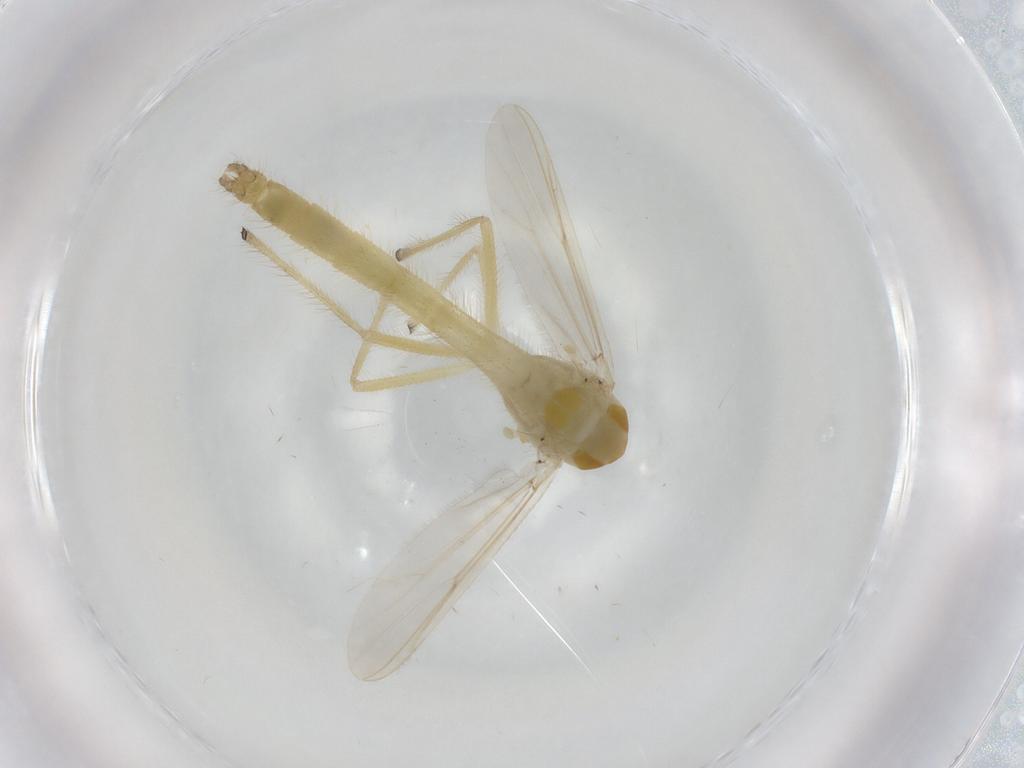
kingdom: Animalia
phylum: Arthropoda
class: Insecta
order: Diptera
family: Chironomidae
